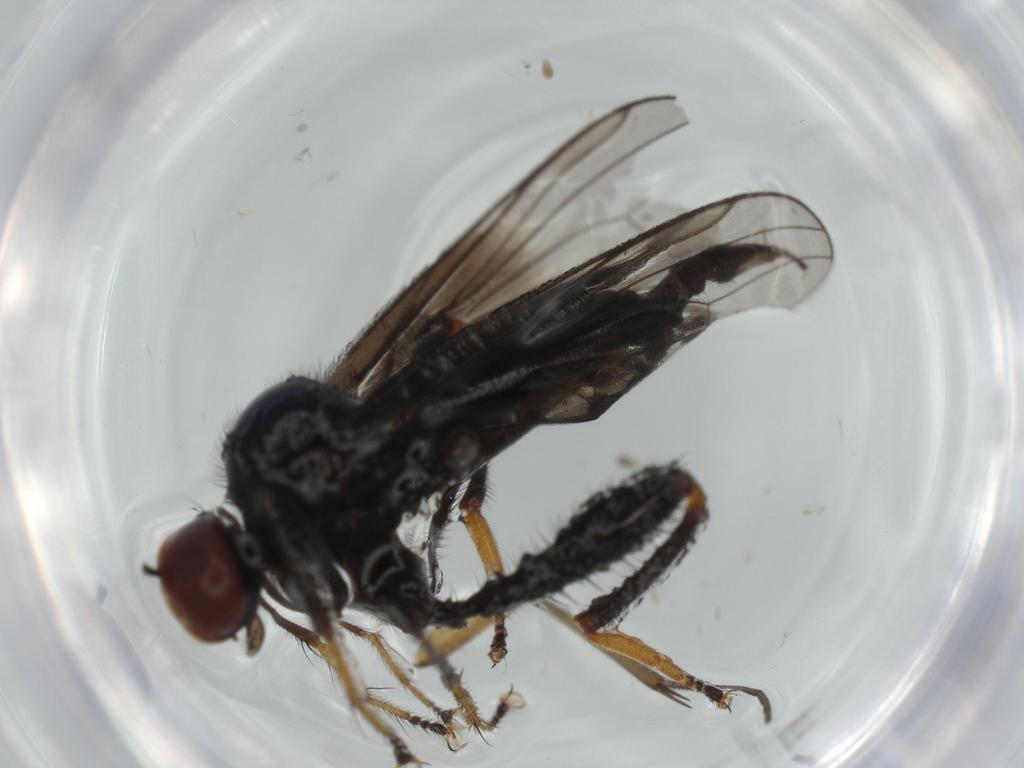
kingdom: Animalia
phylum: Arthropoda
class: Insecta
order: Diptera
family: Hybotidae
